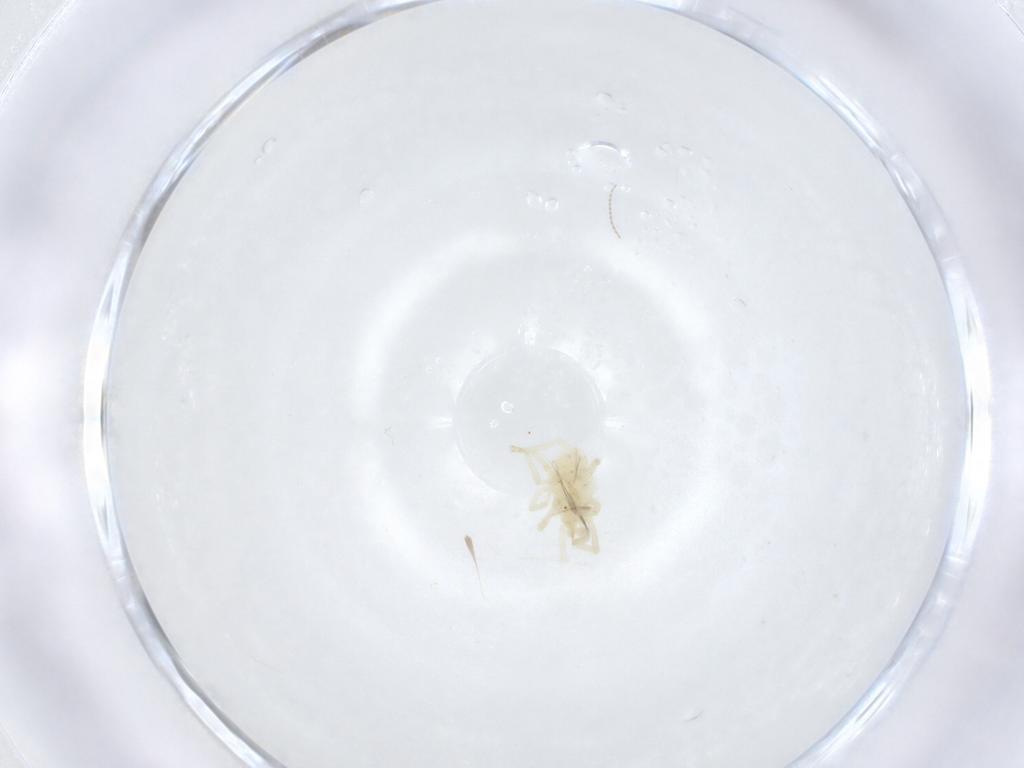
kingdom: Animalia
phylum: Arthropoda
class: Arachnida
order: Trombidiformes
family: Erythraeidae
